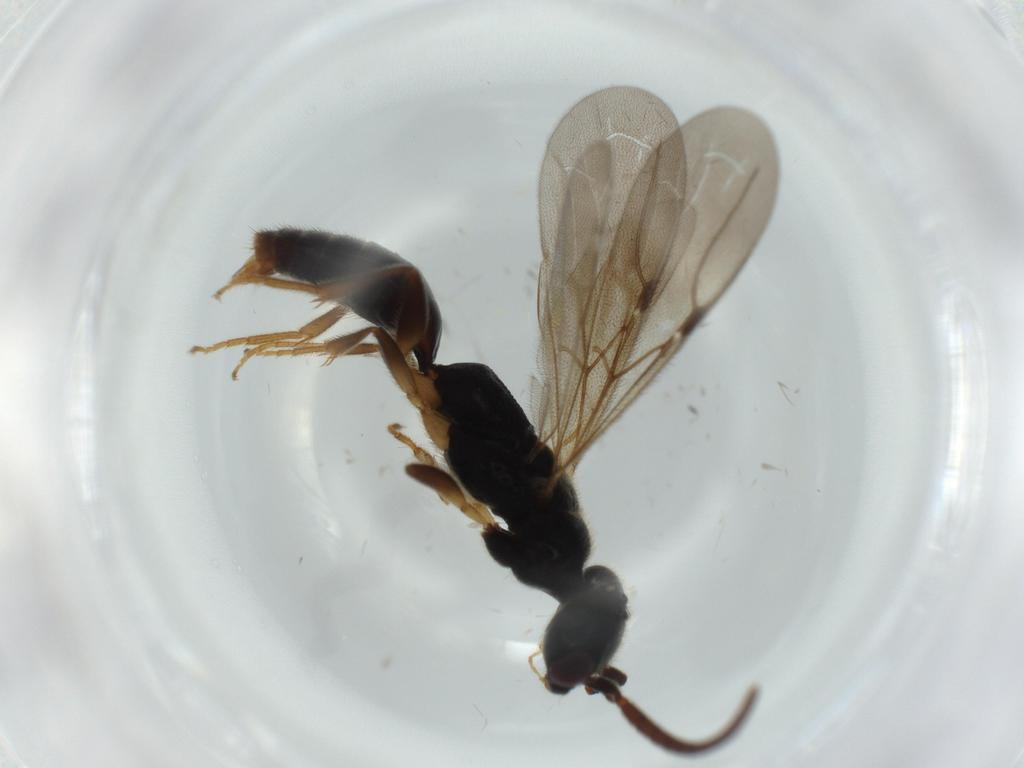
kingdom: Animalia
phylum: Arthropoda
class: Insecta
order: Hymenoptera
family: Bethylidae
